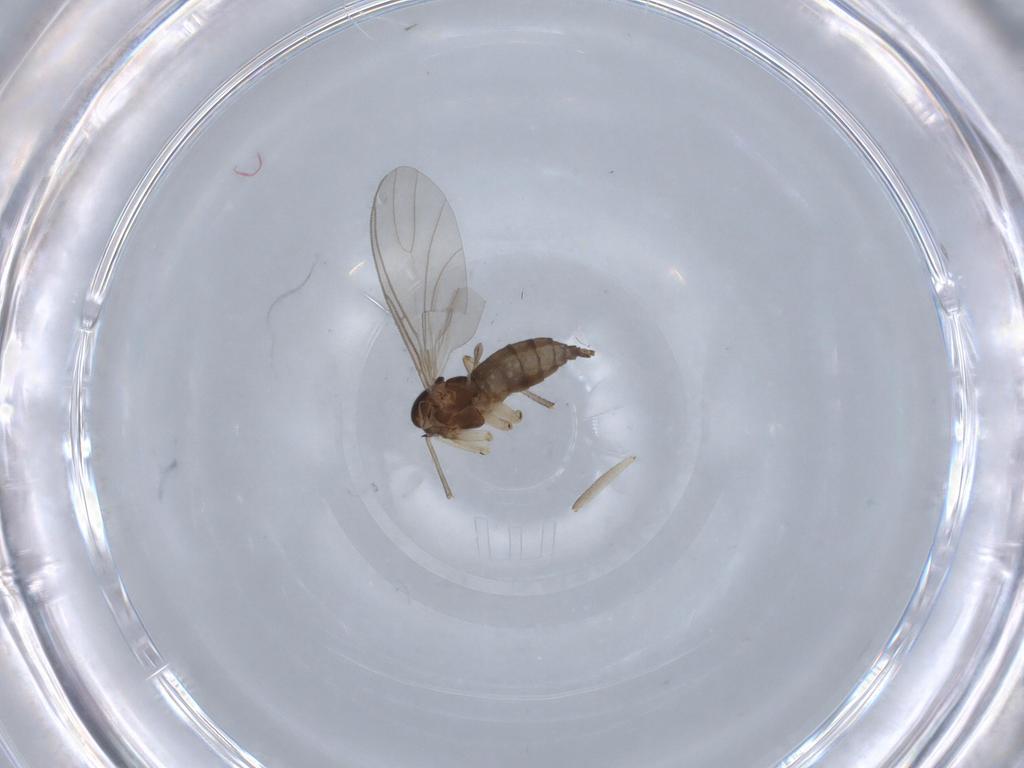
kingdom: Animalia
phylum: Arthropoda
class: Insecta
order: Diptera
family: Sciaridae
